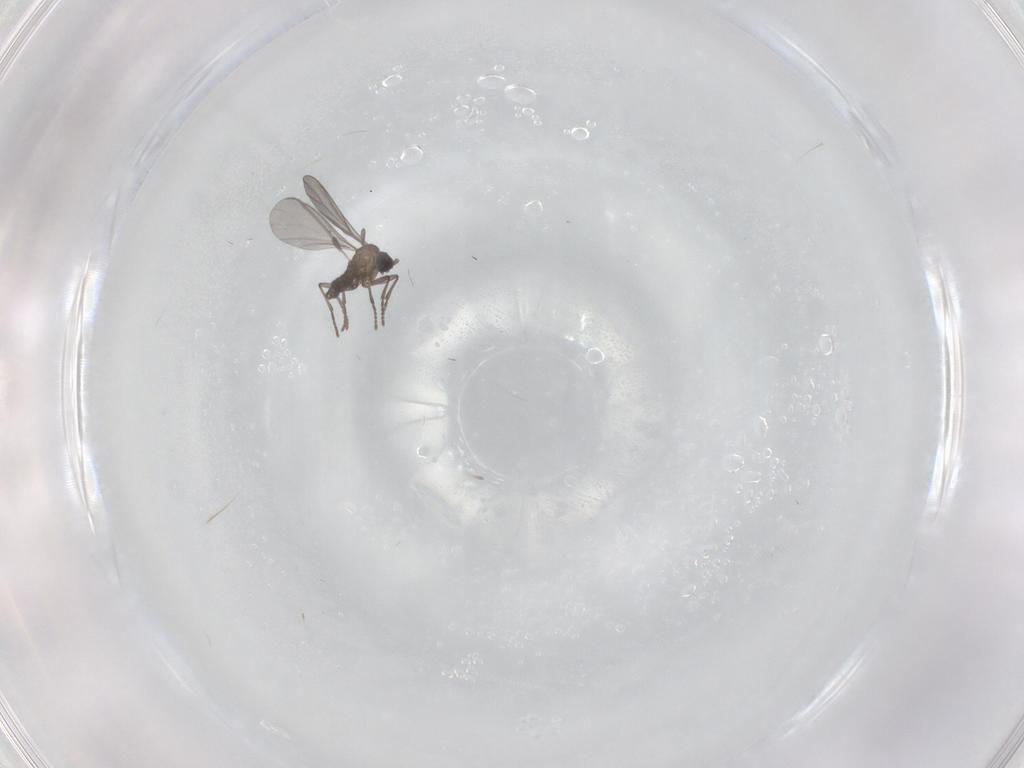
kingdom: Animalia
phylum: Arthropoda
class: Insecta
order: Diptera
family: Sciaridae
